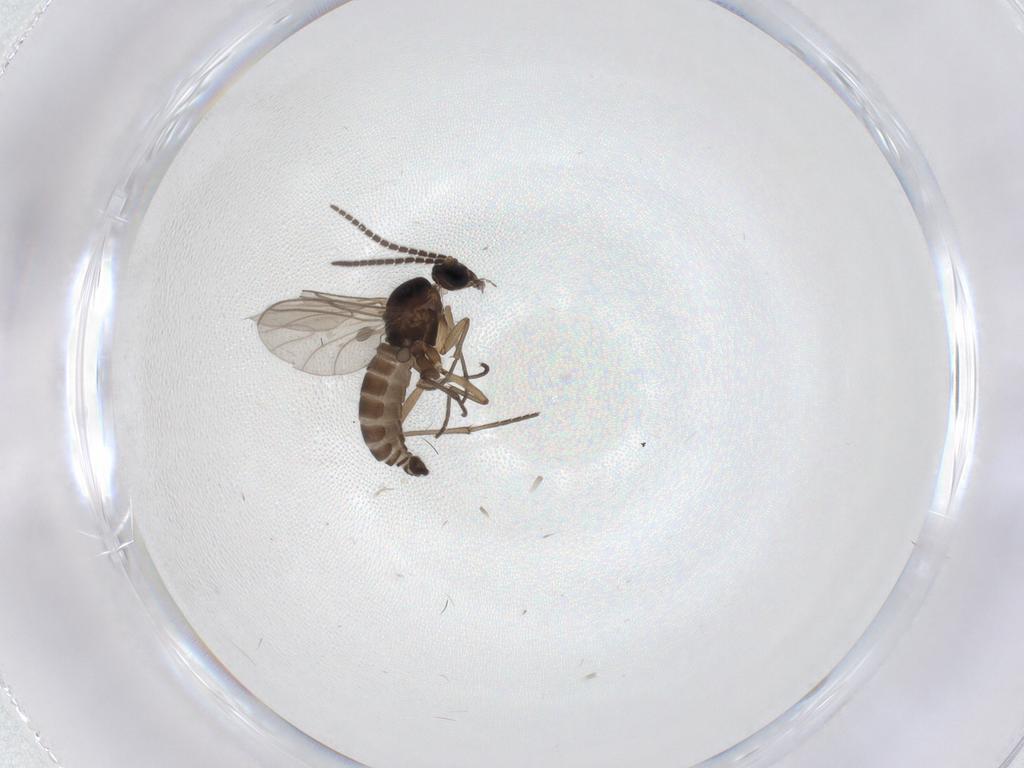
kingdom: Animalia
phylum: Arthropoda
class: Insecta
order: Diptera
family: Sciaridae
